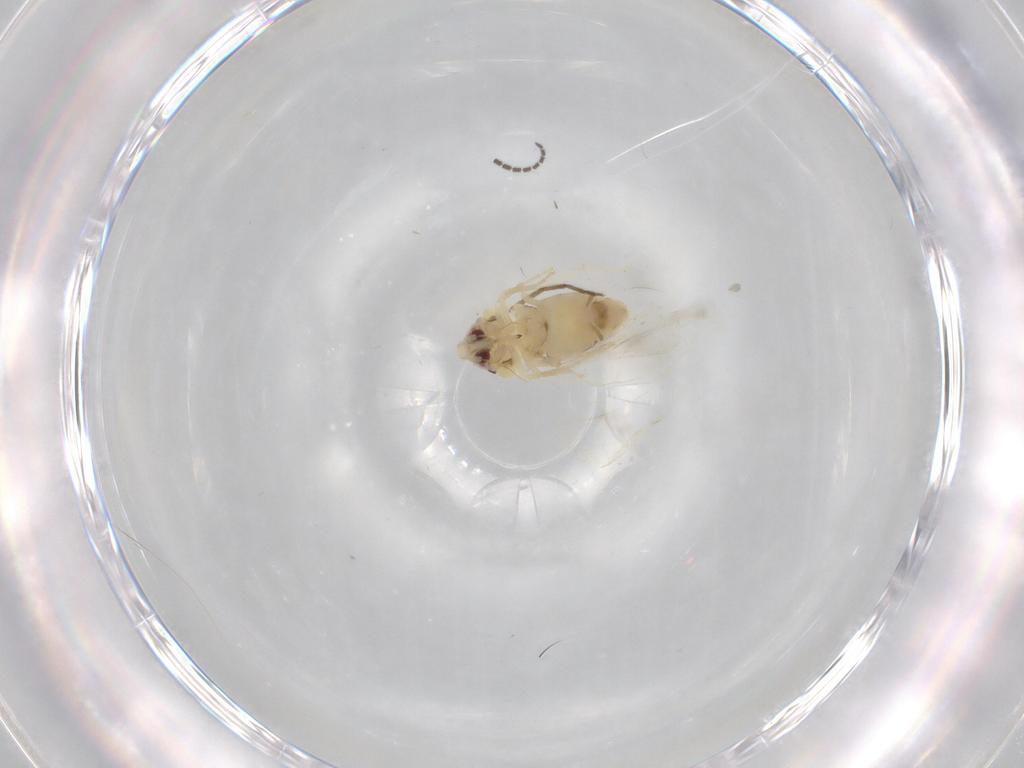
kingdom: Animalia
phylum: Arthropoda
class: Insecta
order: Hemiptera
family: Aleyrodidae
